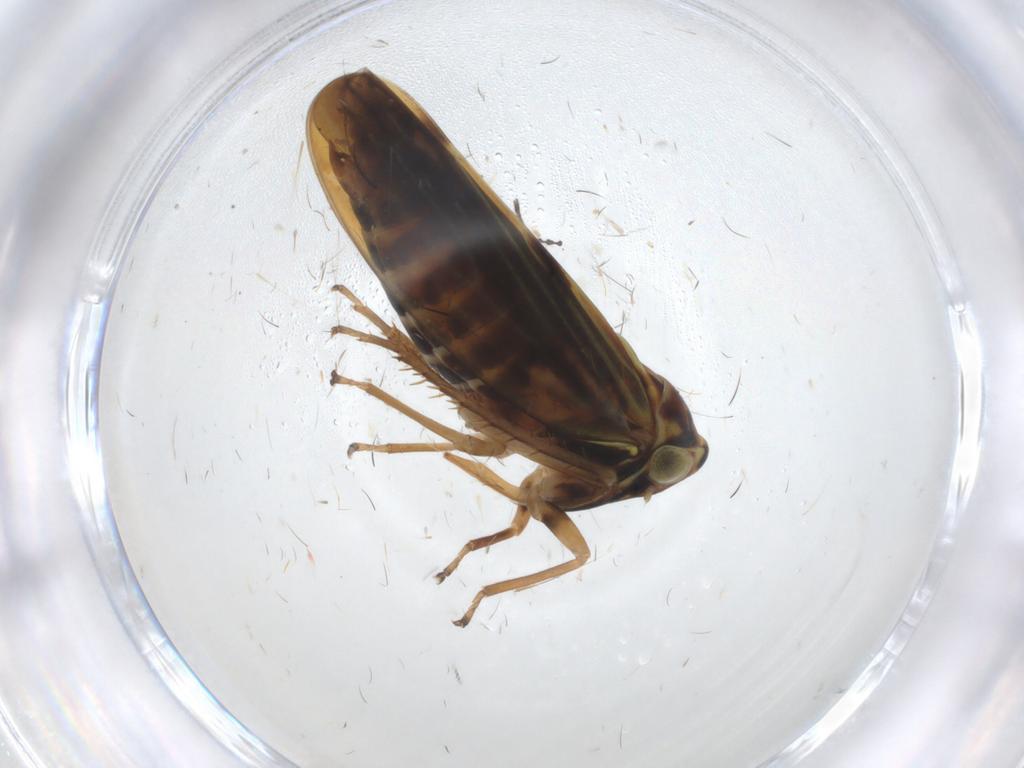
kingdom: Animalia
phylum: Arthropoda
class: Insecta
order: Hemiptera
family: Cicadellidae
